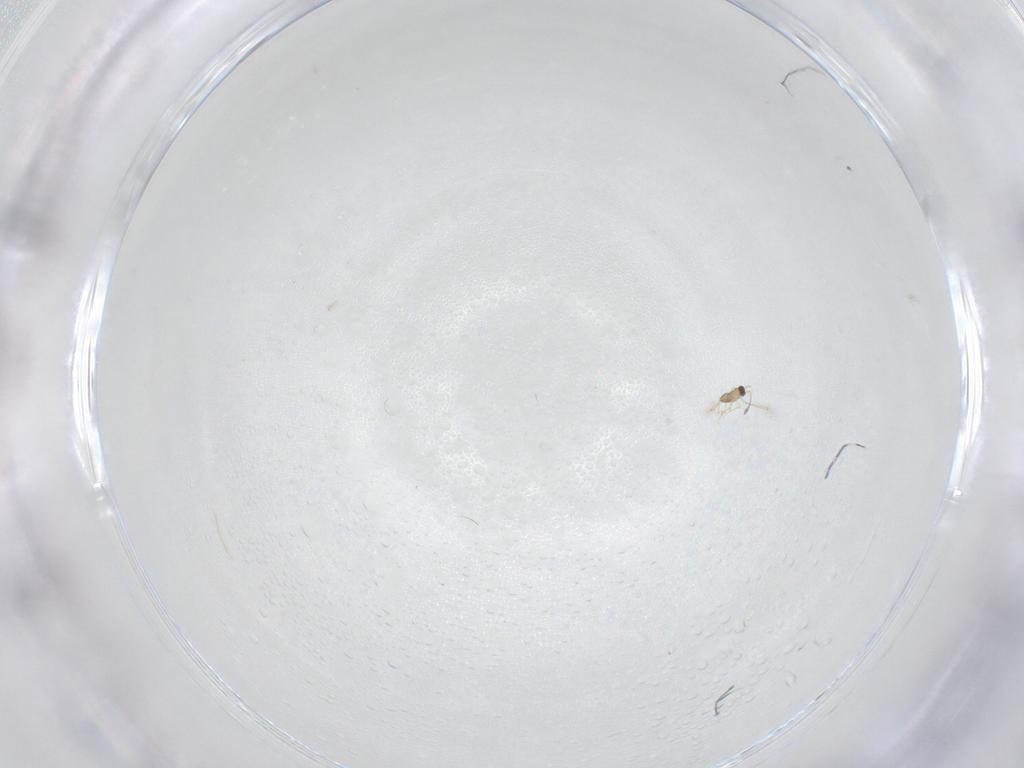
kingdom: Animalia
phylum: Arthropoda
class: Insecta
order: Hymenoptera
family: Mymaridae
